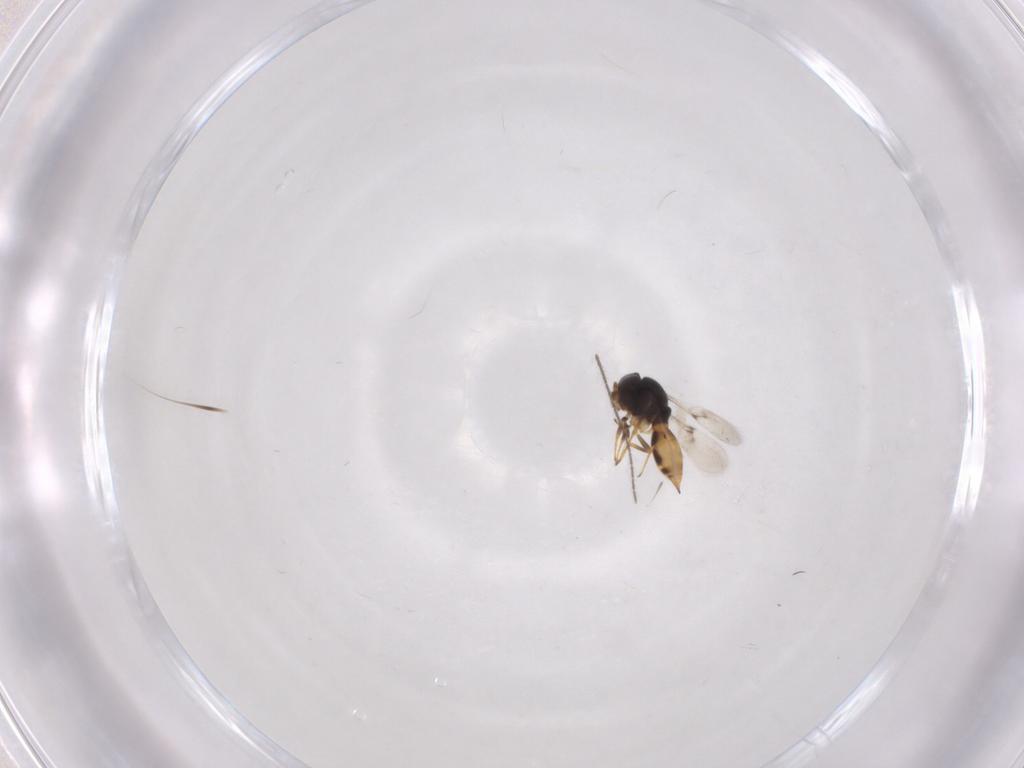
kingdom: Animalia
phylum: Arthropoda
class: Insecta
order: Hymenoptera
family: Scelionidae
